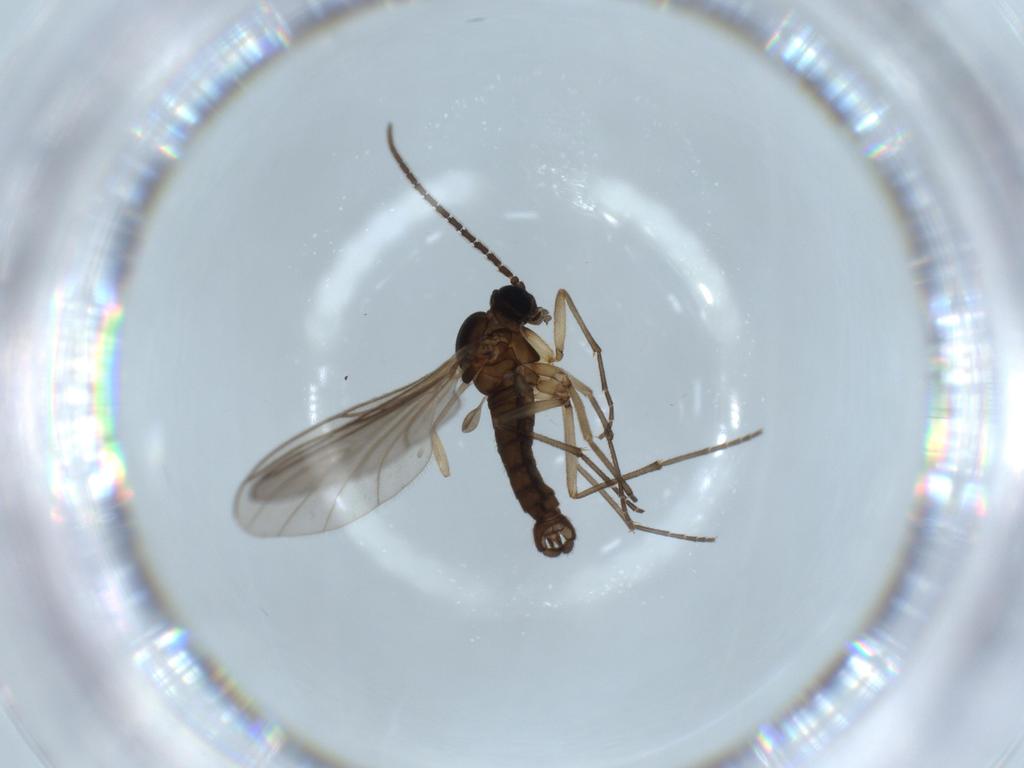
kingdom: Animalia
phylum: Arthropoda
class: Insecta
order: Diptera
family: Sciaridae
